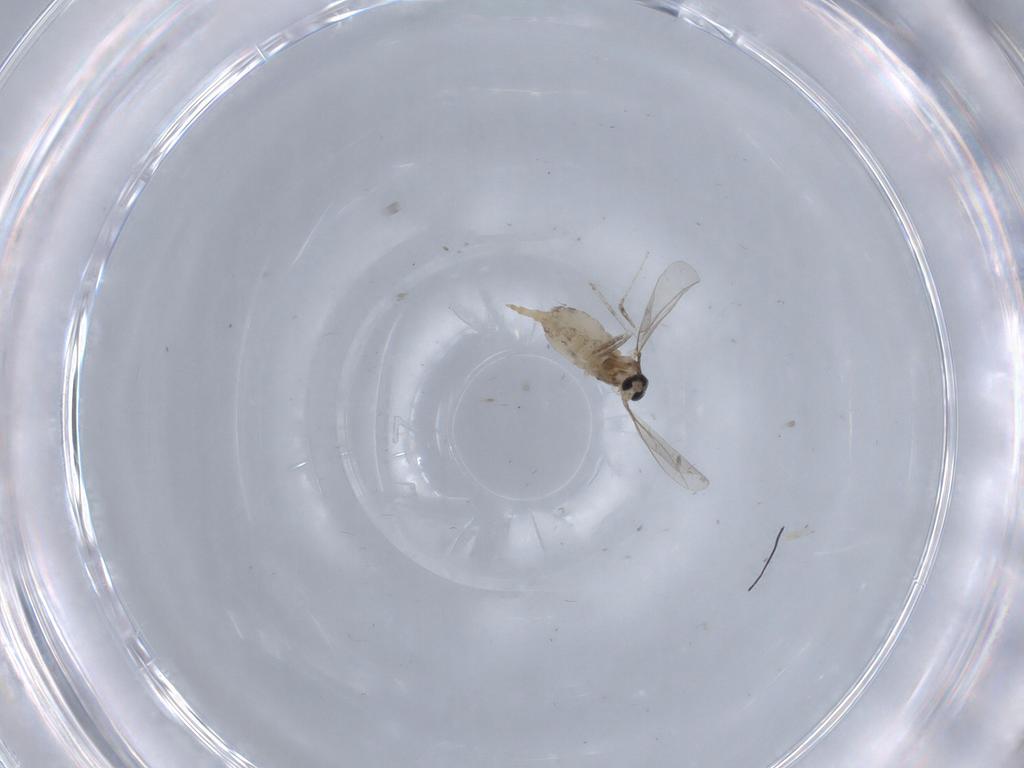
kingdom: Animalia
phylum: Arthropoda
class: Insecta
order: Diptera
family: Cecidomyiidae
